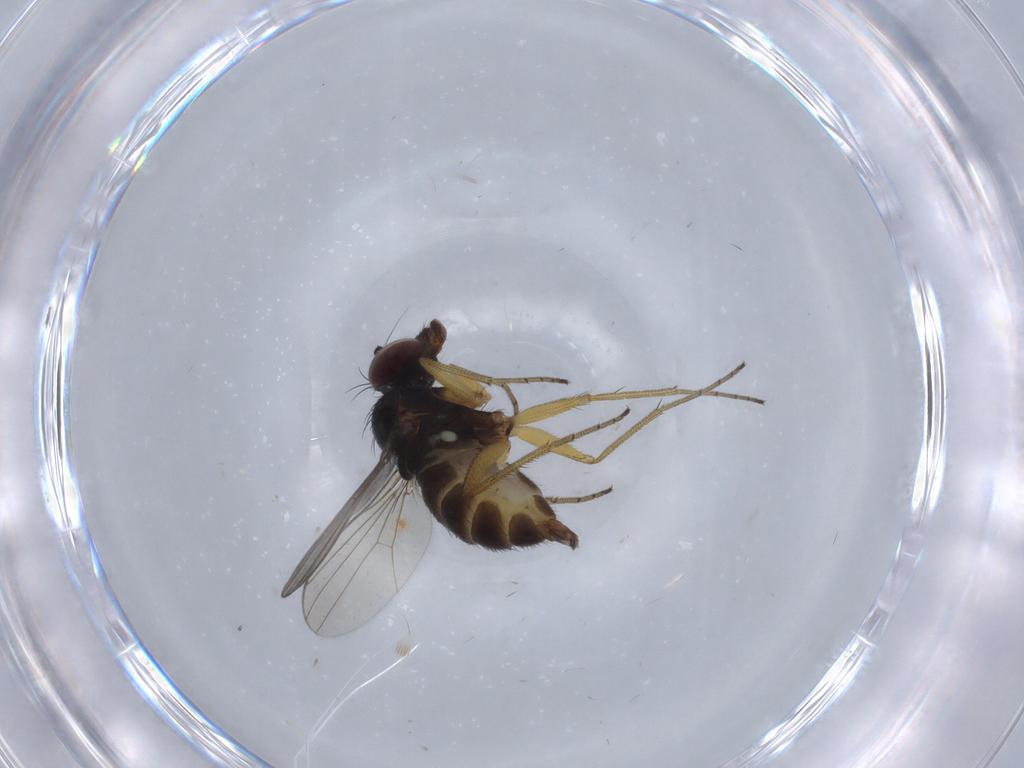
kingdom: Animalia
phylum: Arthropoda
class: Insecta
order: Diptera
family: Dolichopodidae
